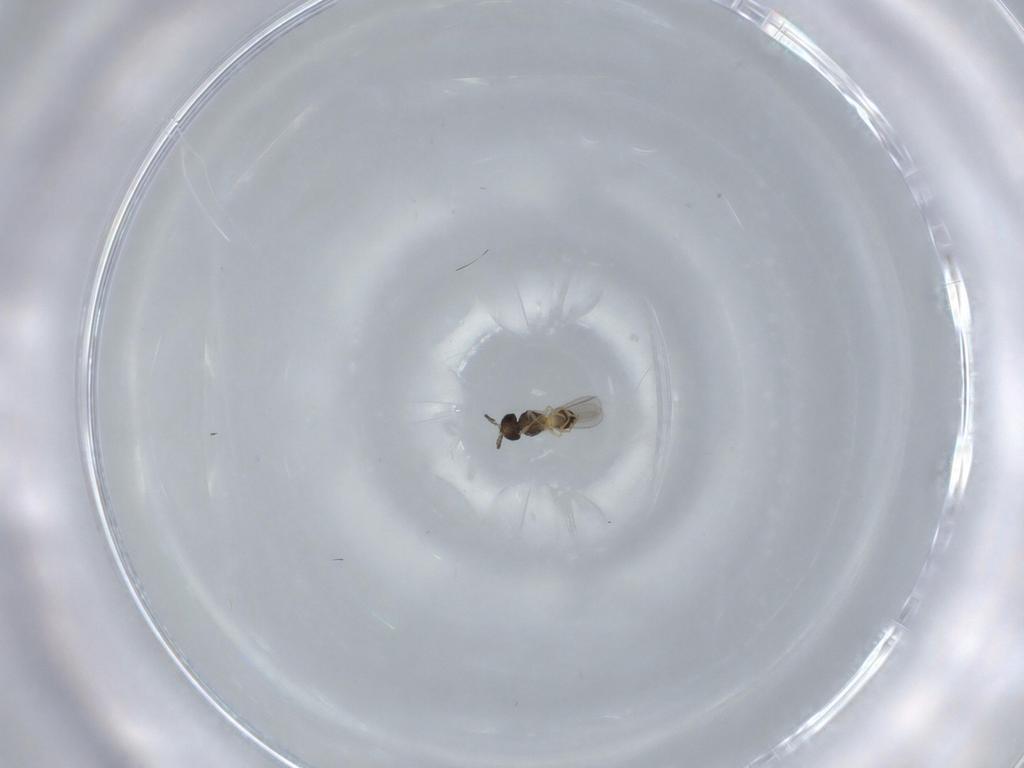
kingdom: Animalia
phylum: Arthropoda
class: Insecta
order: Hymenoptera
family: Scelionidae
